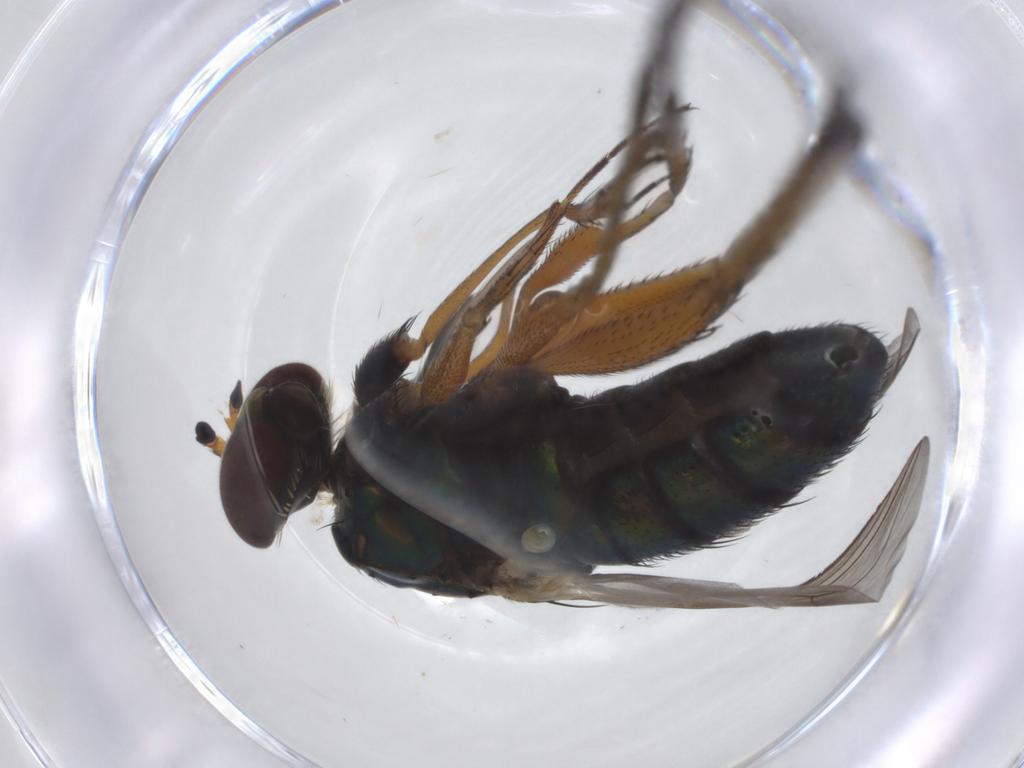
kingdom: Animalia
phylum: Arthropoda
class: Insecta
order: Diptera
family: Dolichopodidae
